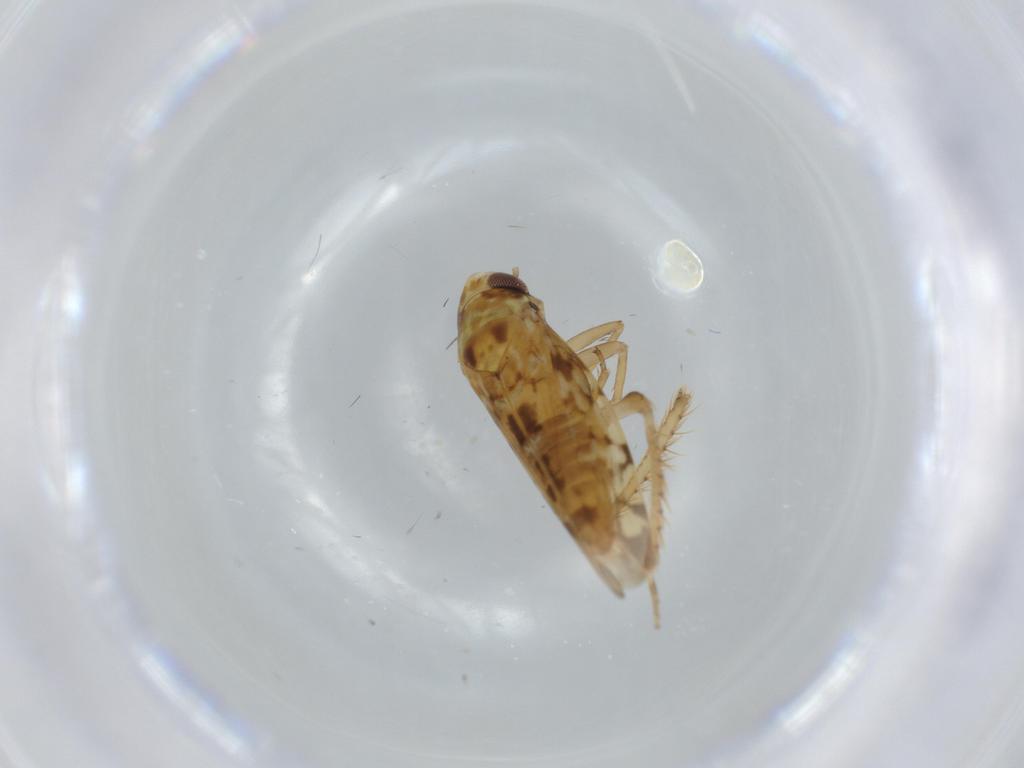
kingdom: Animalia
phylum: Arthropoda
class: Insecta
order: Hemiptera
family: Cicadellidae
